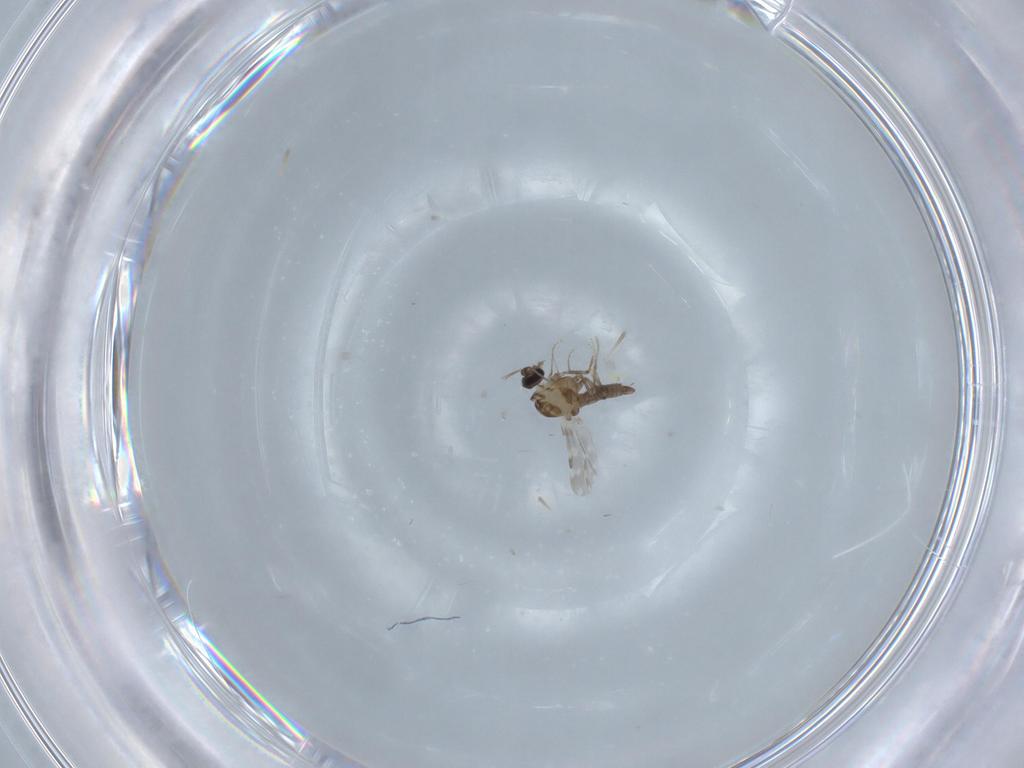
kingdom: Animalia
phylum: Arthropoda
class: Insecta
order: Diptera
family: Ceratopogonidae
